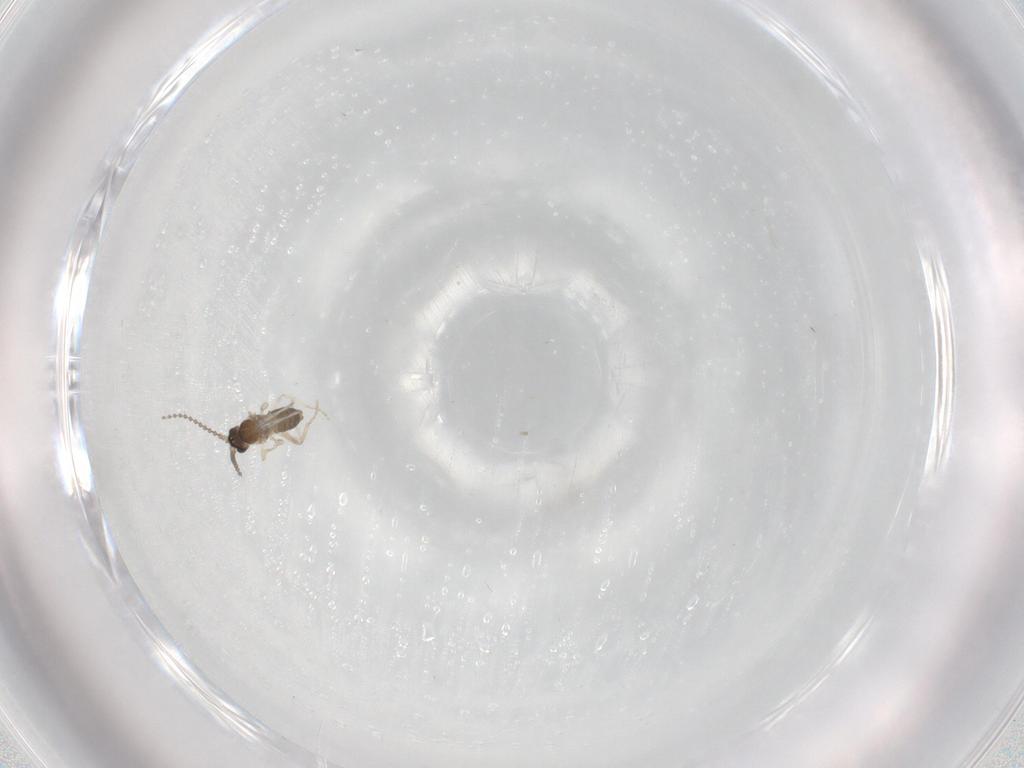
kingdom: Animalia
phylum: Arthropoda
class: Insecta
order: Diptera
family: Cecidomyiidae
